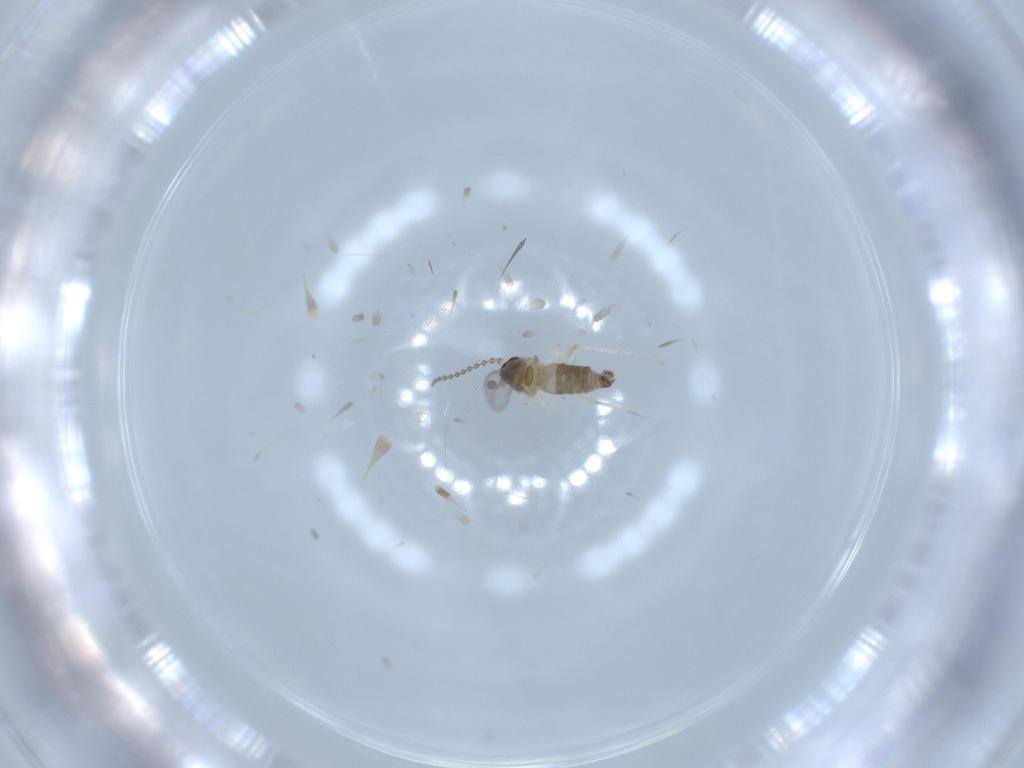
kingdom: Animalia
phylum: Arthropoda
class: Insecta
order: Diptera
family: Cecidomyiidae
